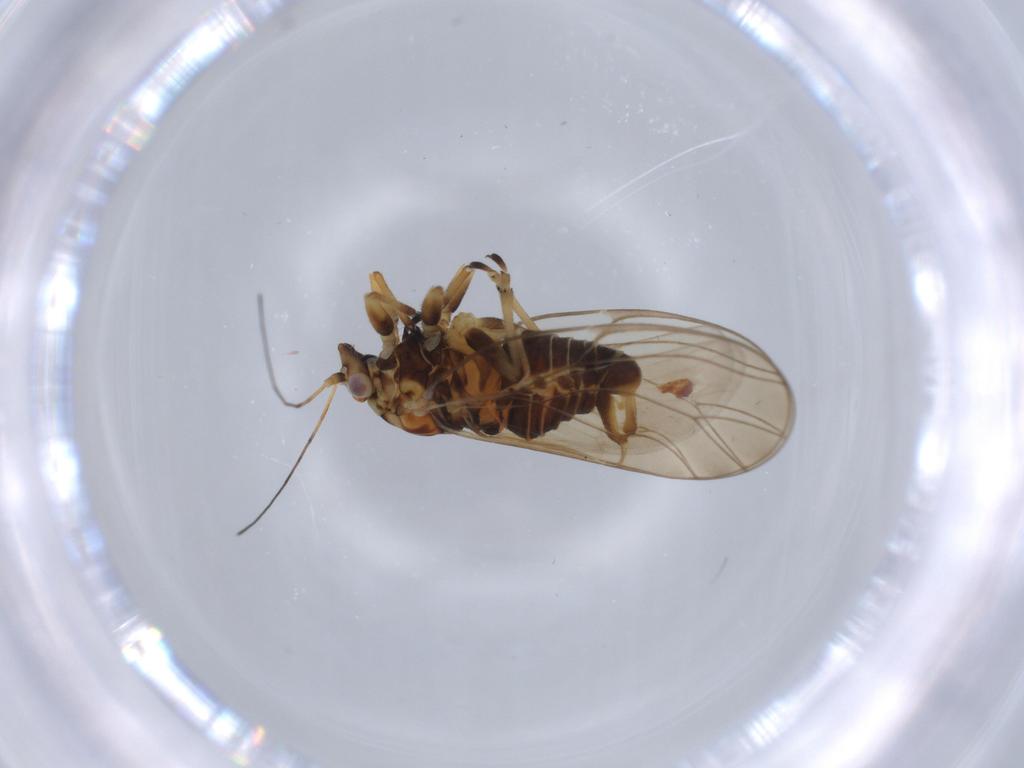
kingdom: Animalia
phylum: Arthropoda
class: Insecta
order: Hemiptera
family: Psyllidae
